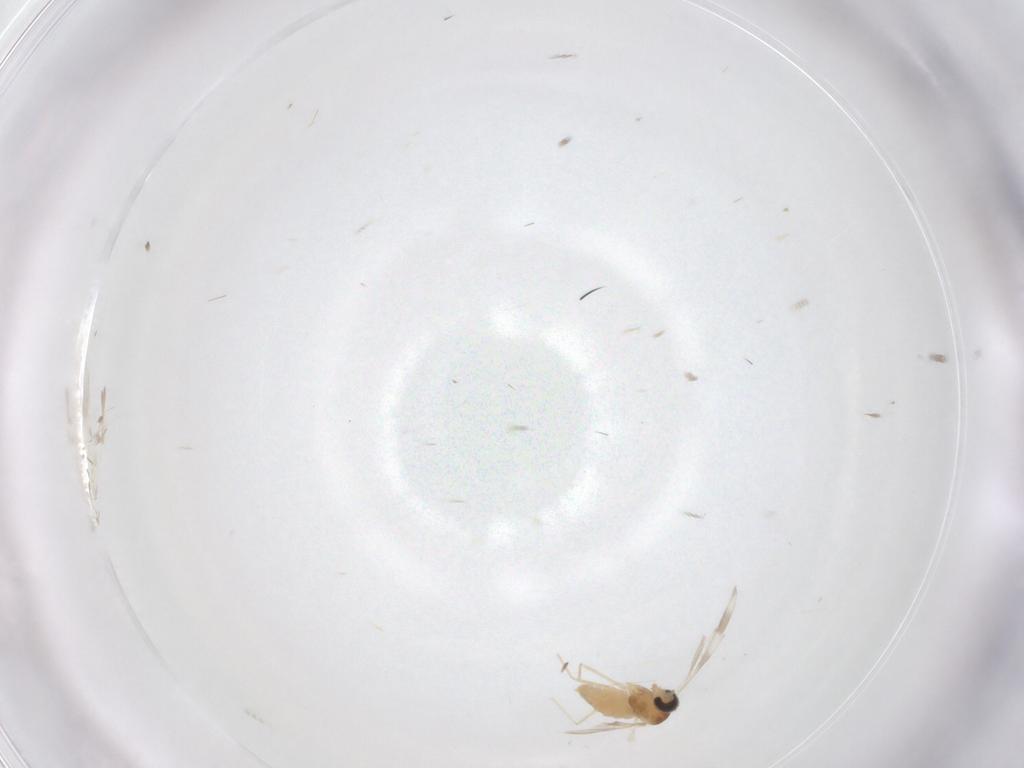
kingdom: Animalia
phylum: Arthropoda
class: Insecta
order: Diptera
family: Cecidomyiidae
